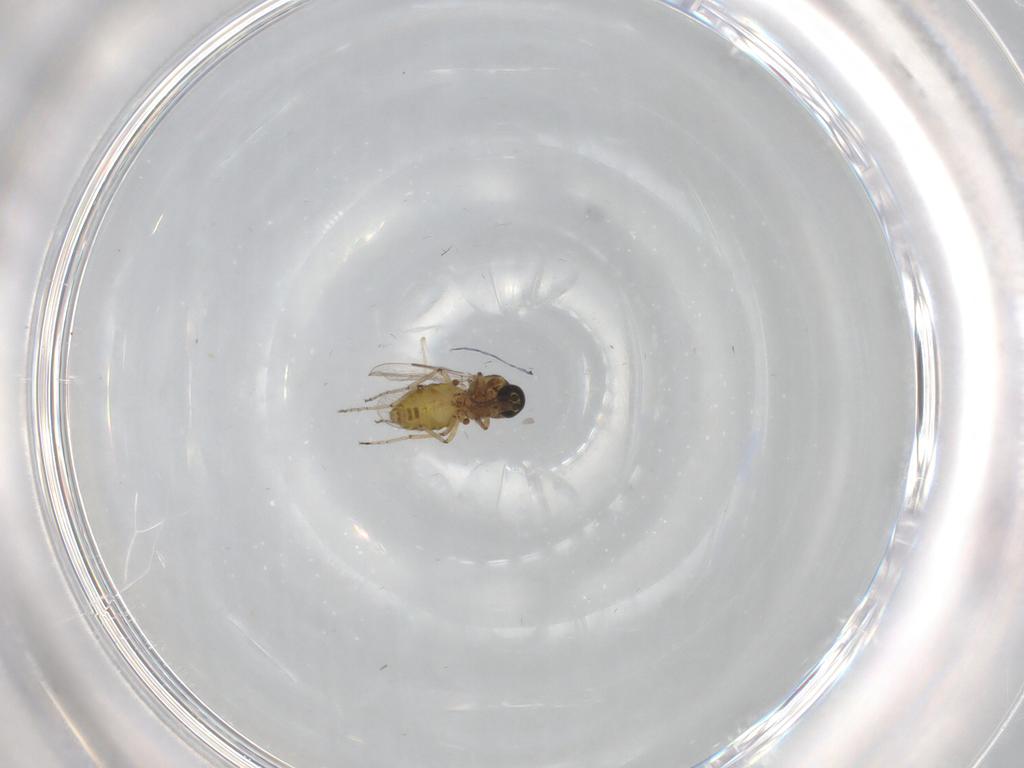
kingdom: Animalia
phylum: Arthropoda
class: Insecta
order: Diptera
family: Ceratopogonidae
